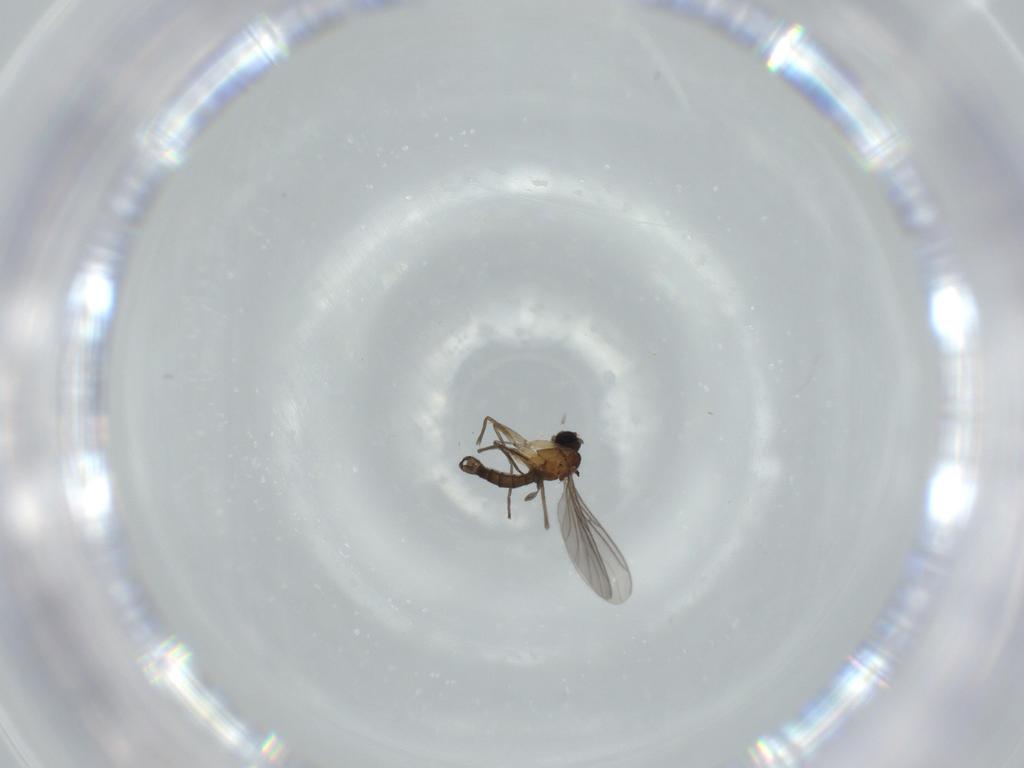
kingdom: Animalia
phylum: Arthropoda
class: Insecta
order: Diptera
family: Sciaridae
